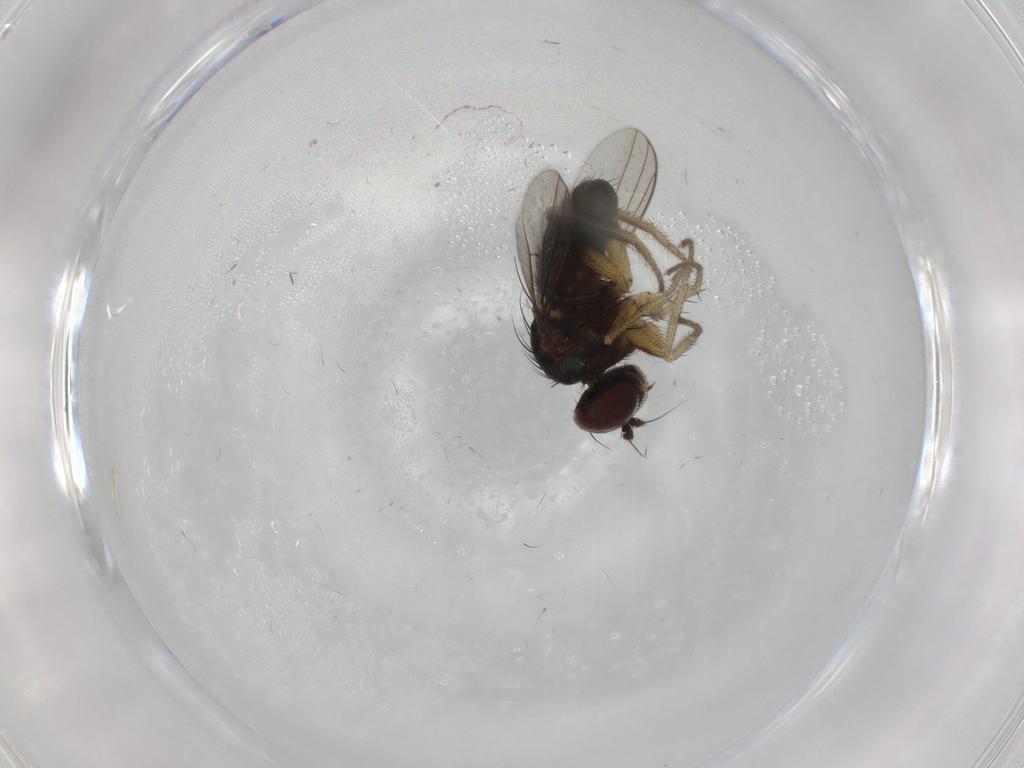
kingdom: Animalia
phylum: Arthropoda
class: Insecta
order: Diptera
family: Dolichopodidae
